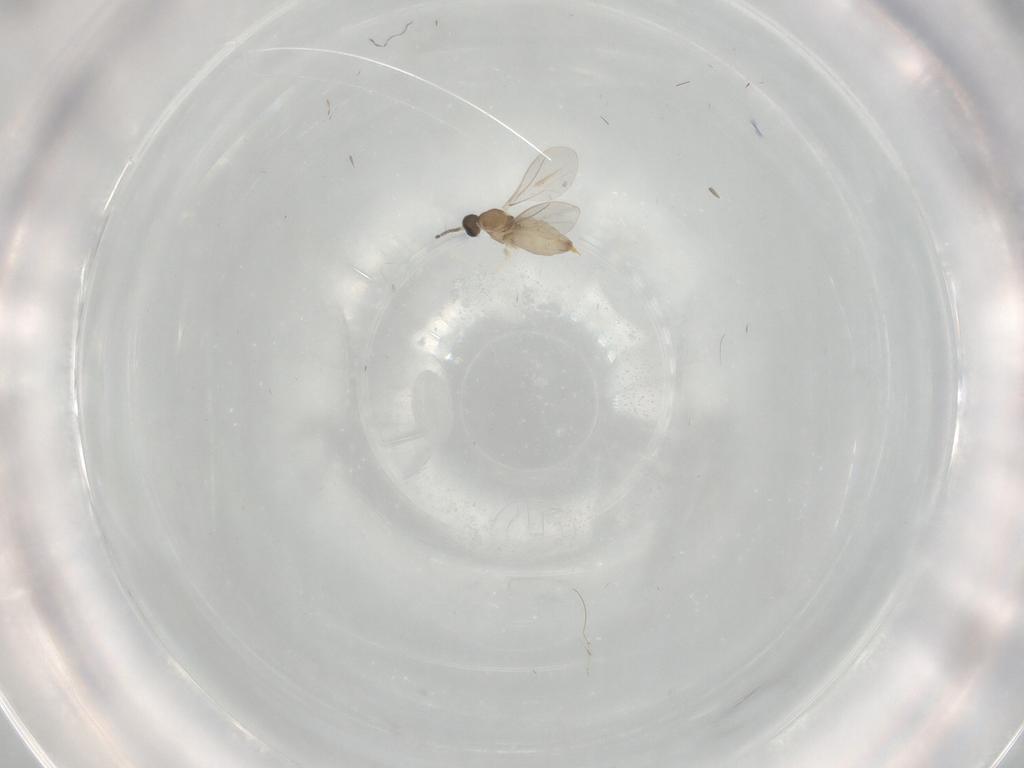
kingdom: Animalia
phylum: Arthropoda
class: Insecta
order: Diptera
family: Cecidomyiidae
